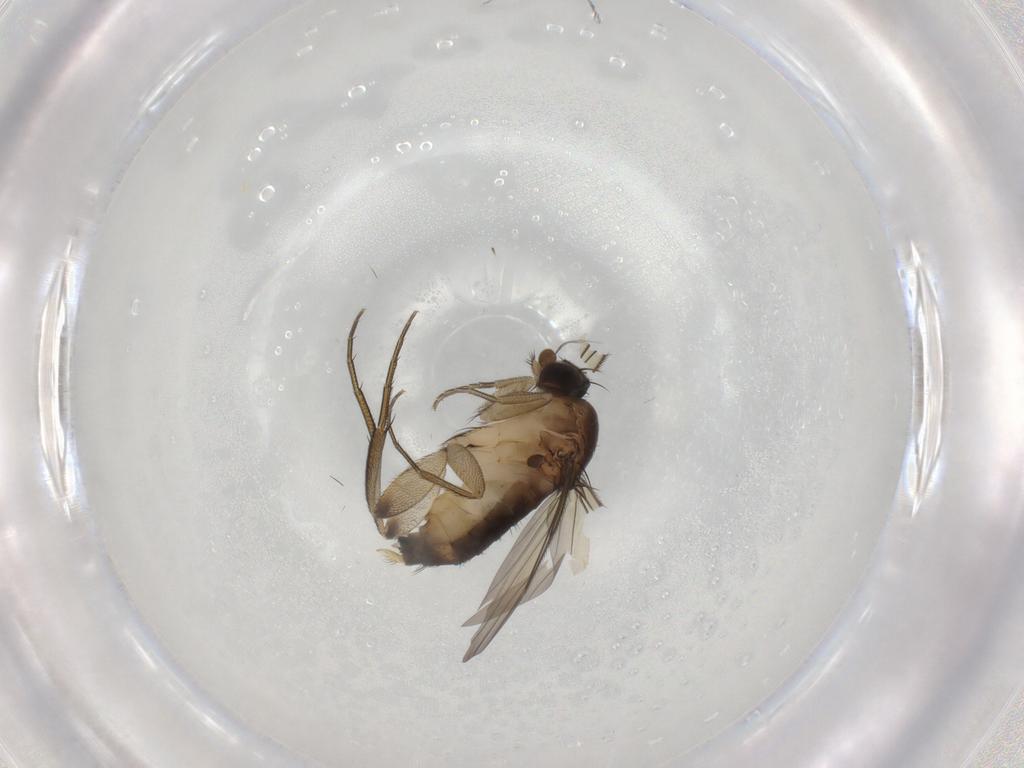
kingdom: Animalia
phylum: Arthropoda
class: Insecta
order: Diptera
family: Phoridae
